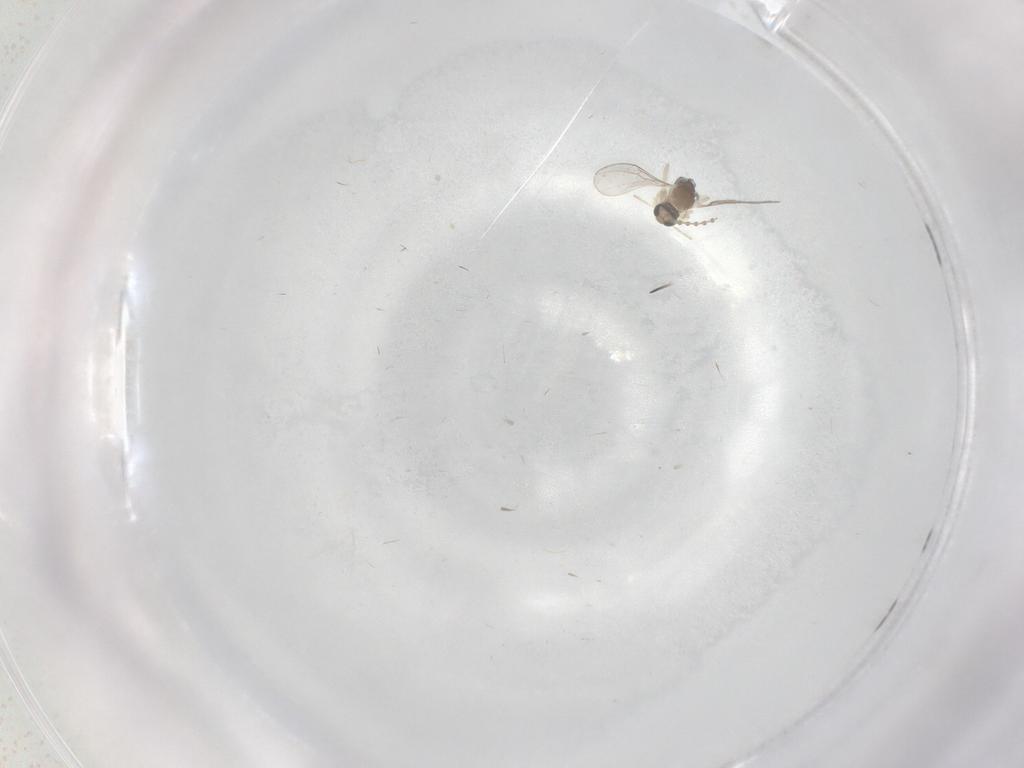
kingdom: Animalia
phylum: Arthropoda
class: Insecta
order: Diptera
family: Cecidomyiidae
